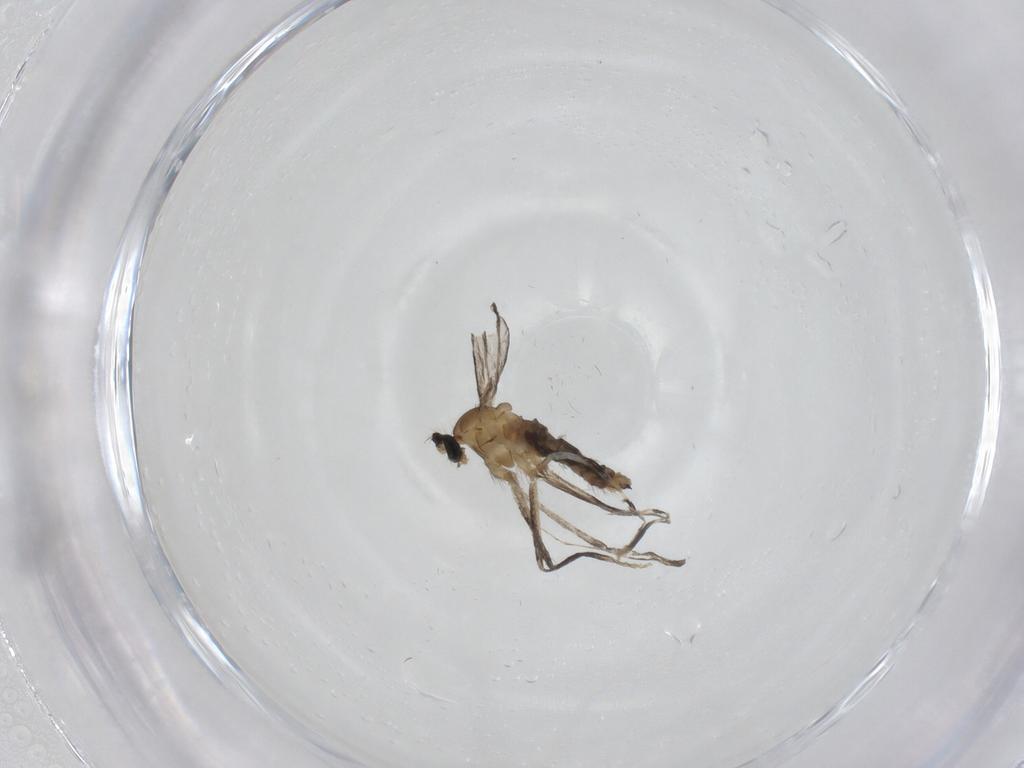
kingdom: Animalia
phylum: Arthropoda
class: Insecta
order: Diptera
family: Cecidomyiidae
